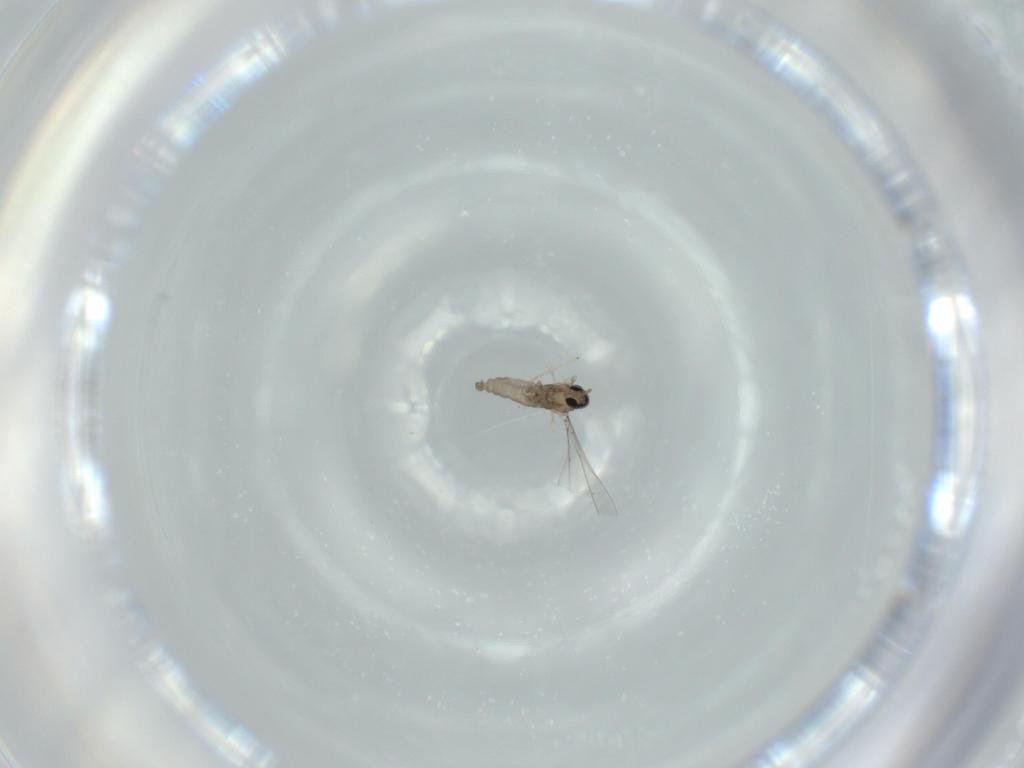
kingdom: Animalia
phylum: Arthropoda
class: Insecta
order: Diptera
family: Cecidomyiidae
